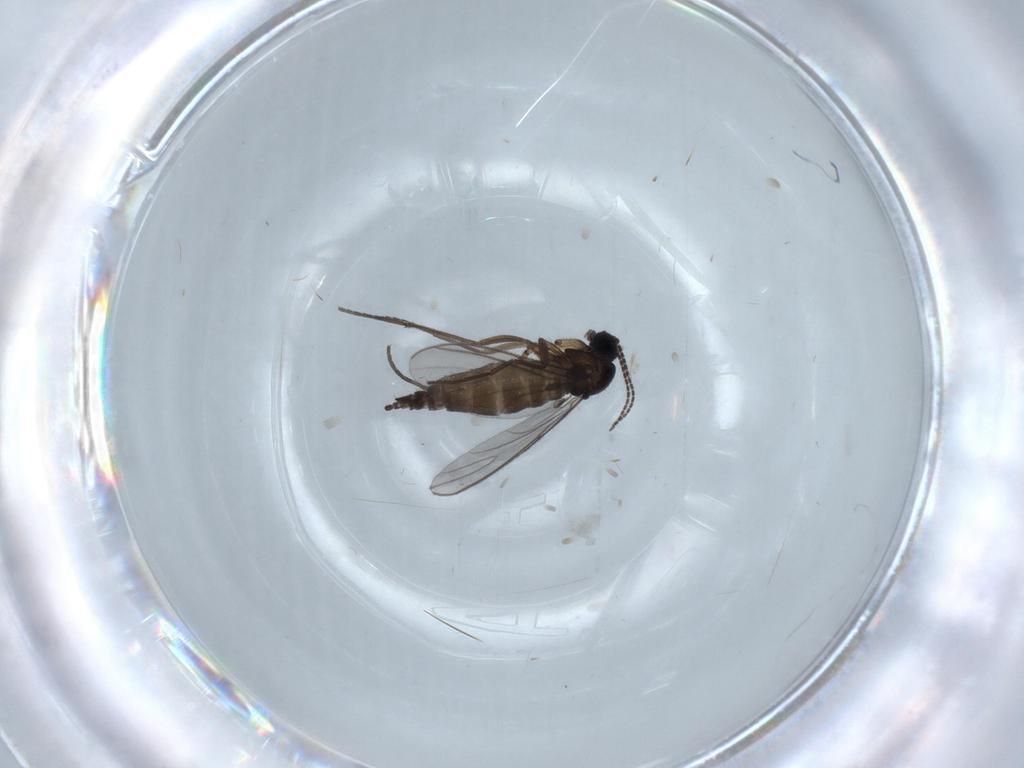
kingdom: Animalia
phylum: Arthropoda
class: Insecta
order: Diptera
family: Sciaridae
